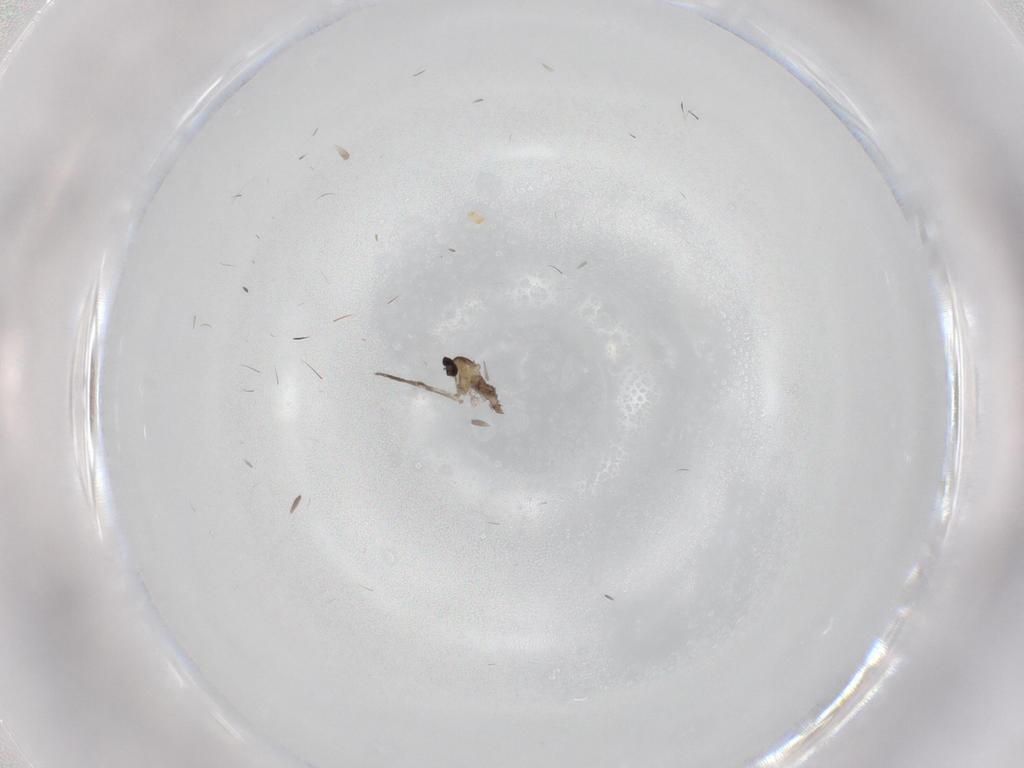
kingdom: Animalia
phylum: Arthropoda
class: Insecta
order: Diptera
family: Cecidomyiidae
